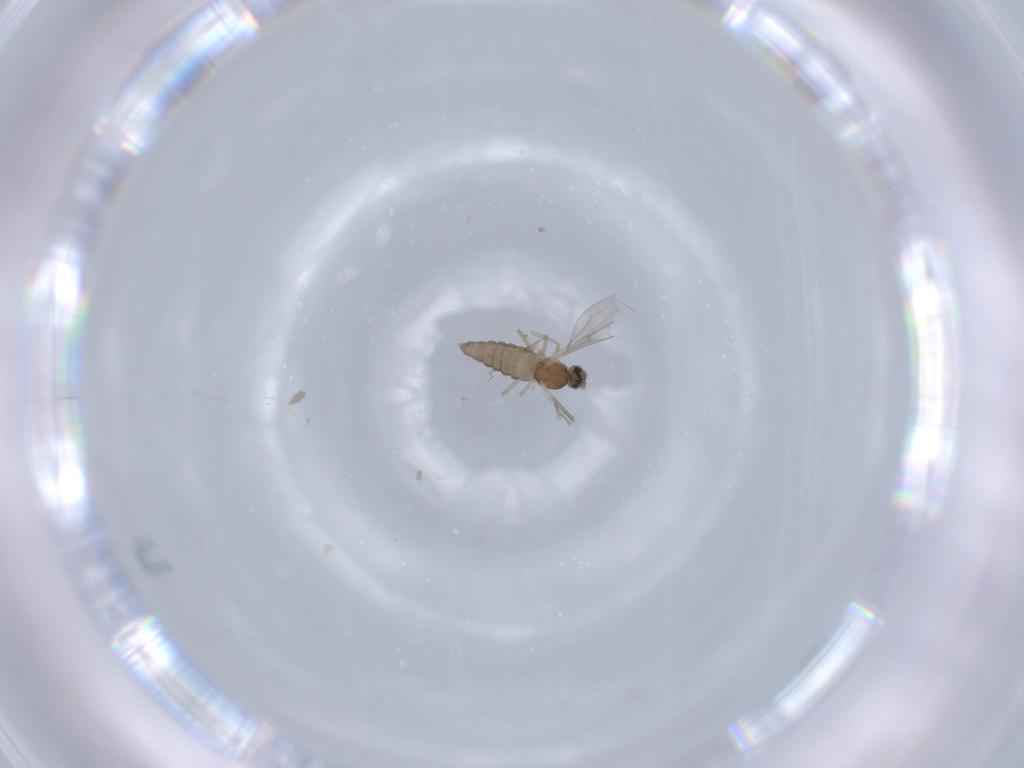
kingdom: Animalia
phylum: Arthropoda
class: Insecta
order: Diptera
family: Cecidomyiidae
